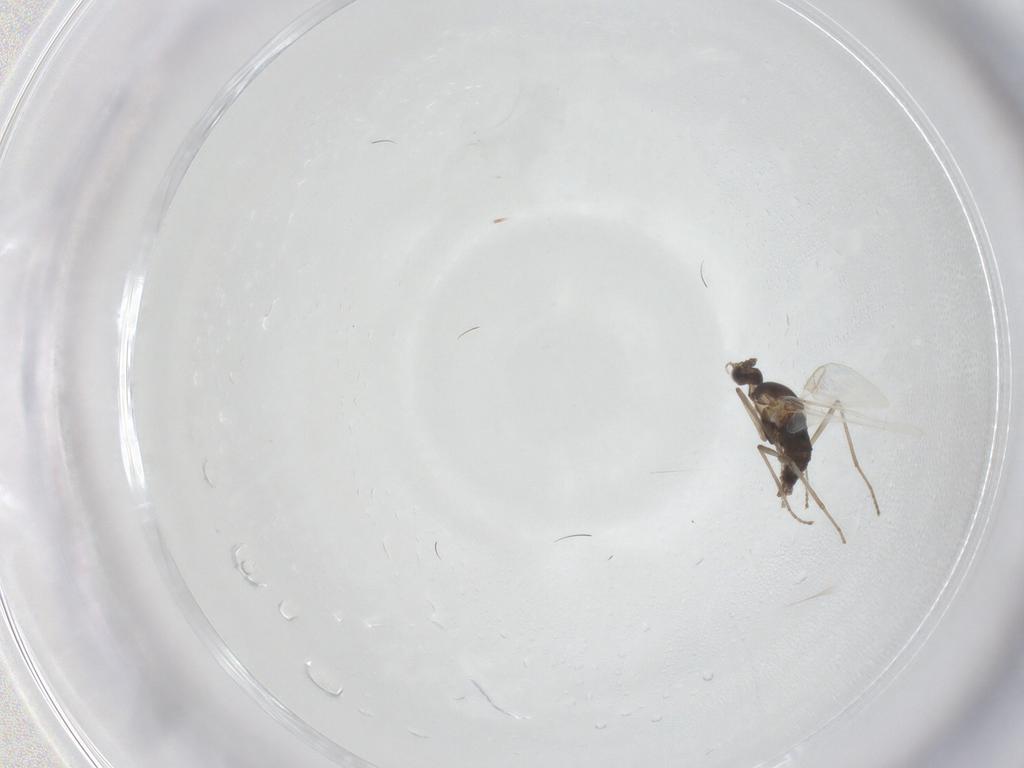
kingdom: Animalia
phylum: Arthropoda
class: Insecta
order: Diptera
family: Cecidomyiidae
